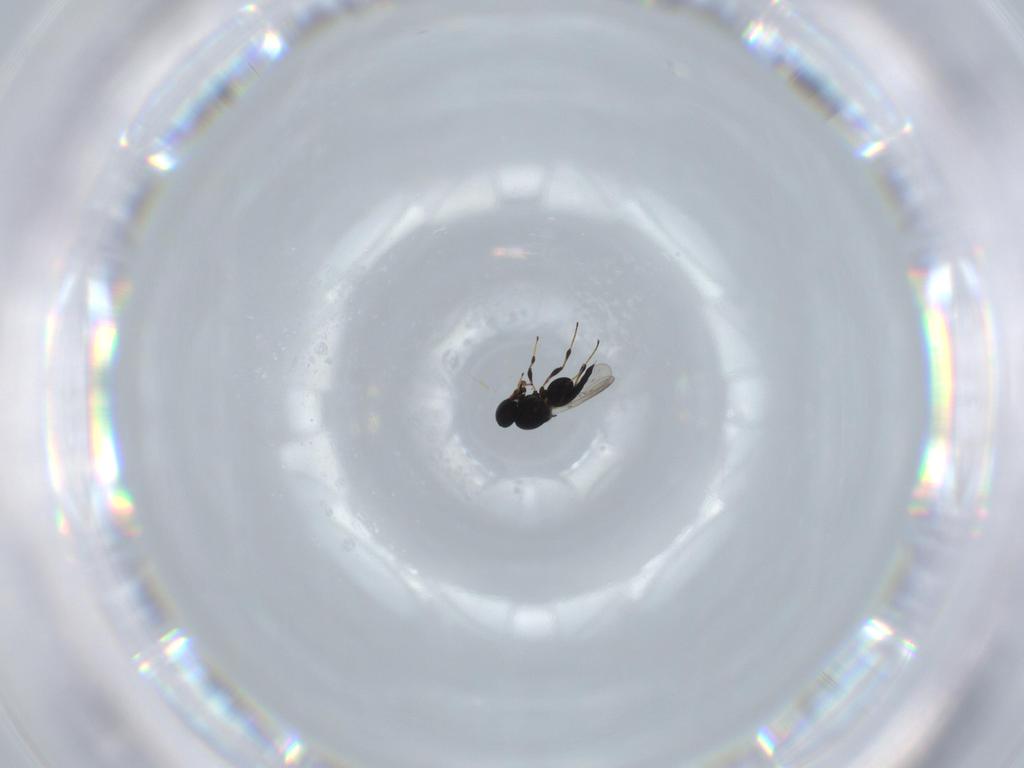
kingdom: Animalia
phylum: Arthropoda
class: Insecta
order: Hymenoptera
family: Platygastridae
